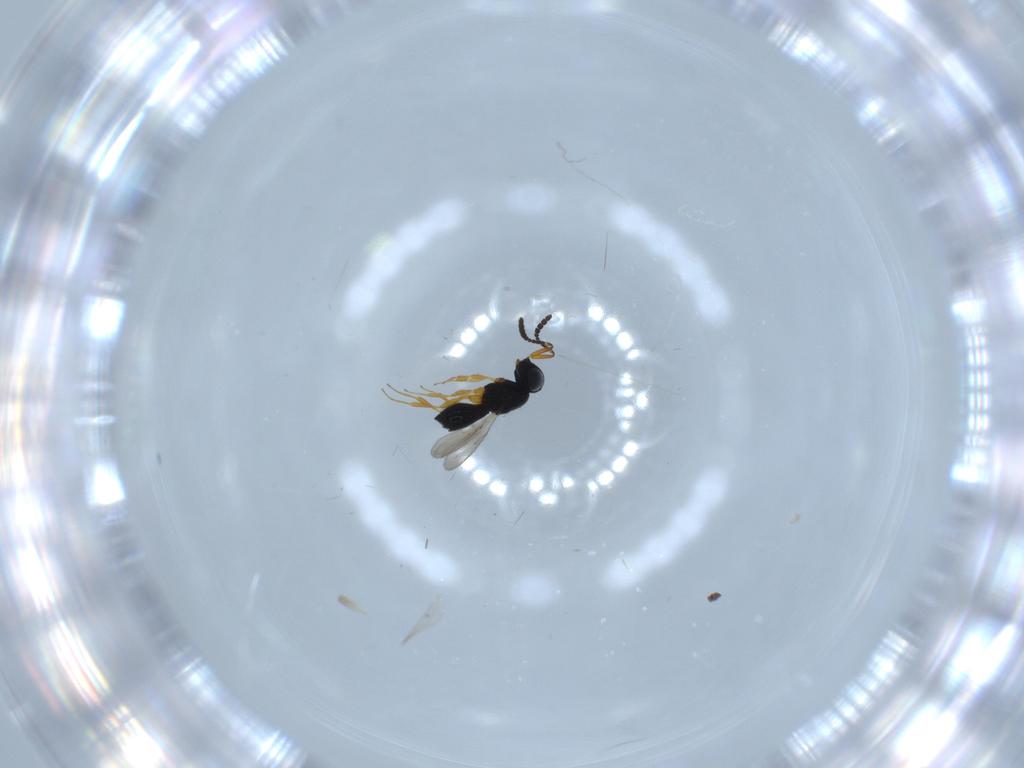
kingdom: Animalia
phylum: Arthropoda
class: Insecta
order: Hymenoptera
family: Scelionidae
